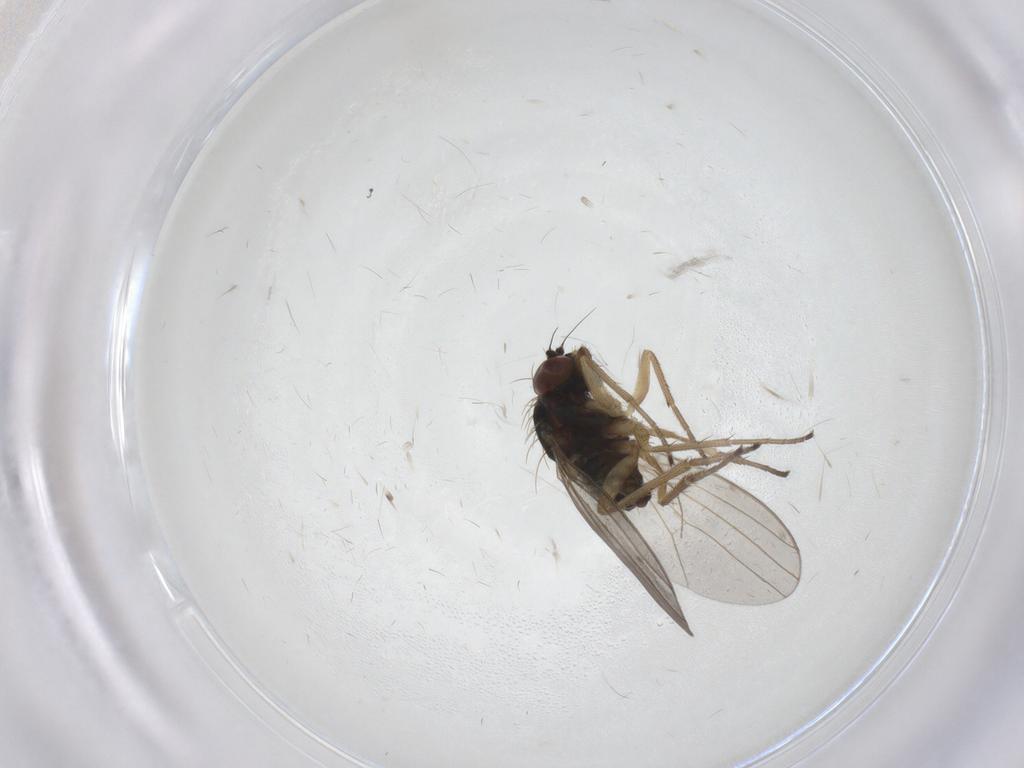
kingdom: Animalia
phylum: Arthropoda
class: Insecta
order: Diptera
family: Dolichopodidae
